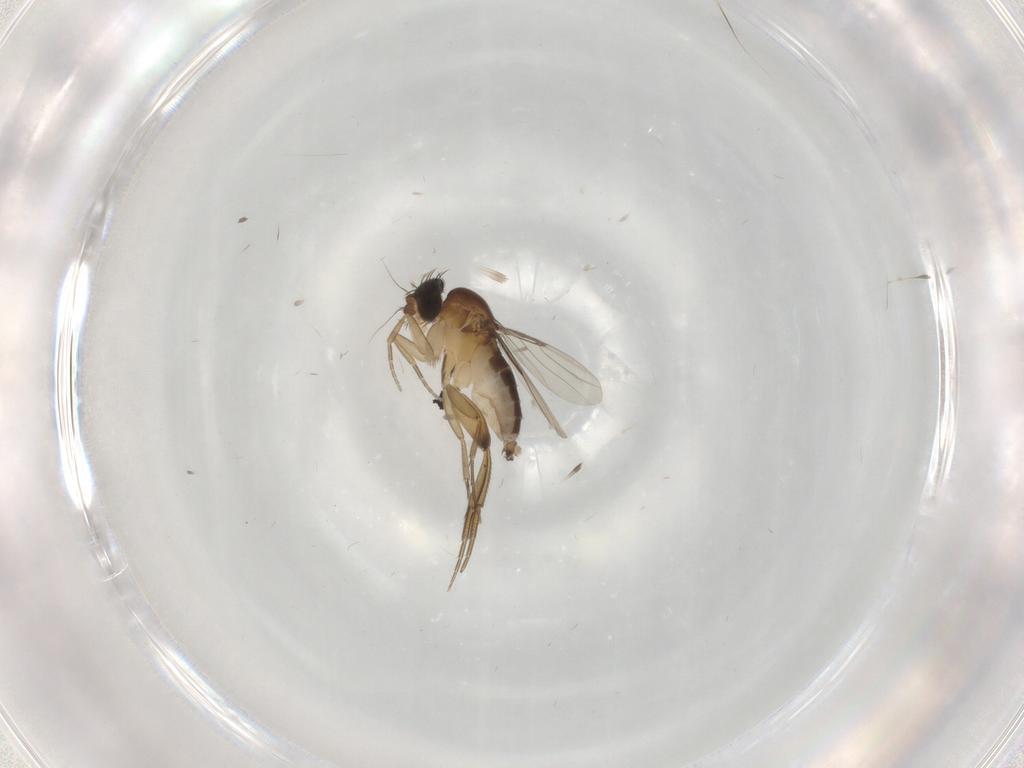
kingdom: Animalia
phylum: Arthropoda
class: Insecta
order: Diptera
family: Phoridae
